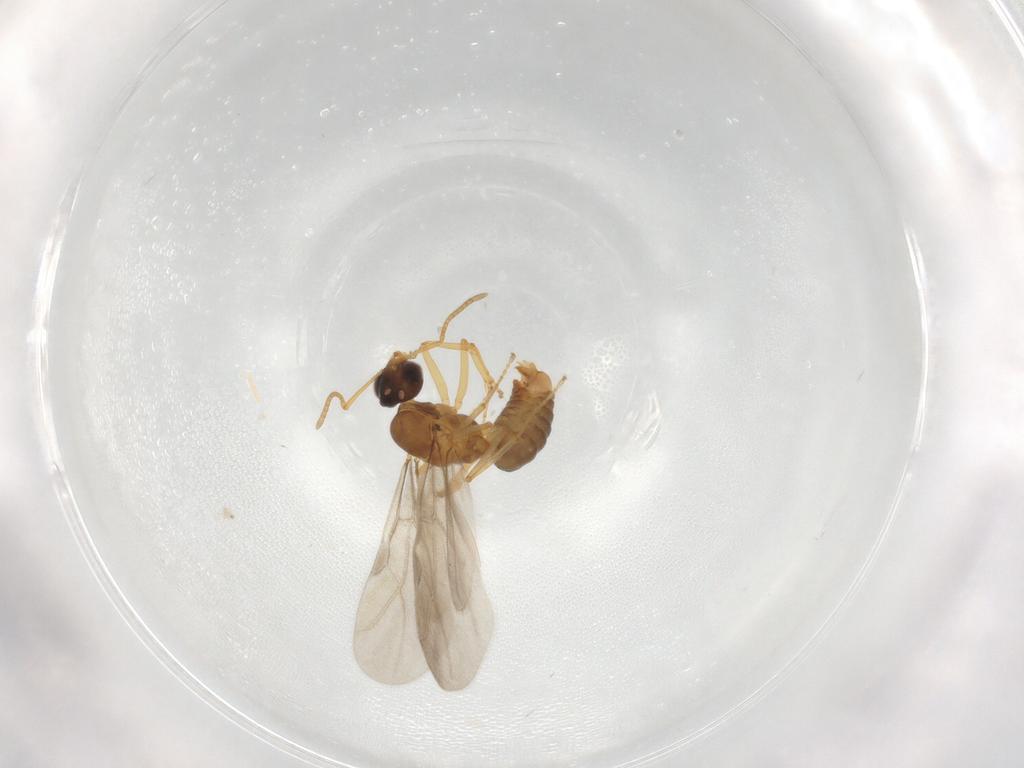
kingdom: Animalia
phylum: Arthropoda
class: Insecta
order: Hymenoptera
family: Formicidae
